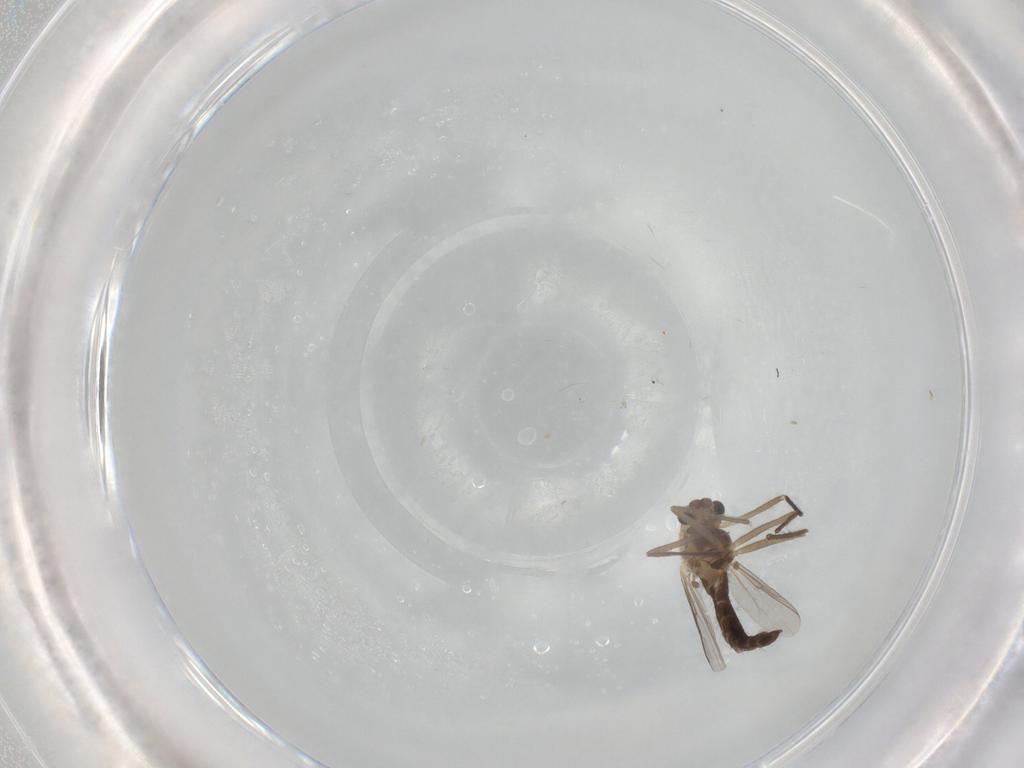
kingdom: Animalia
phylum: Arthropoda
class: Insecta
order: Diptera
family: Chironomidae
